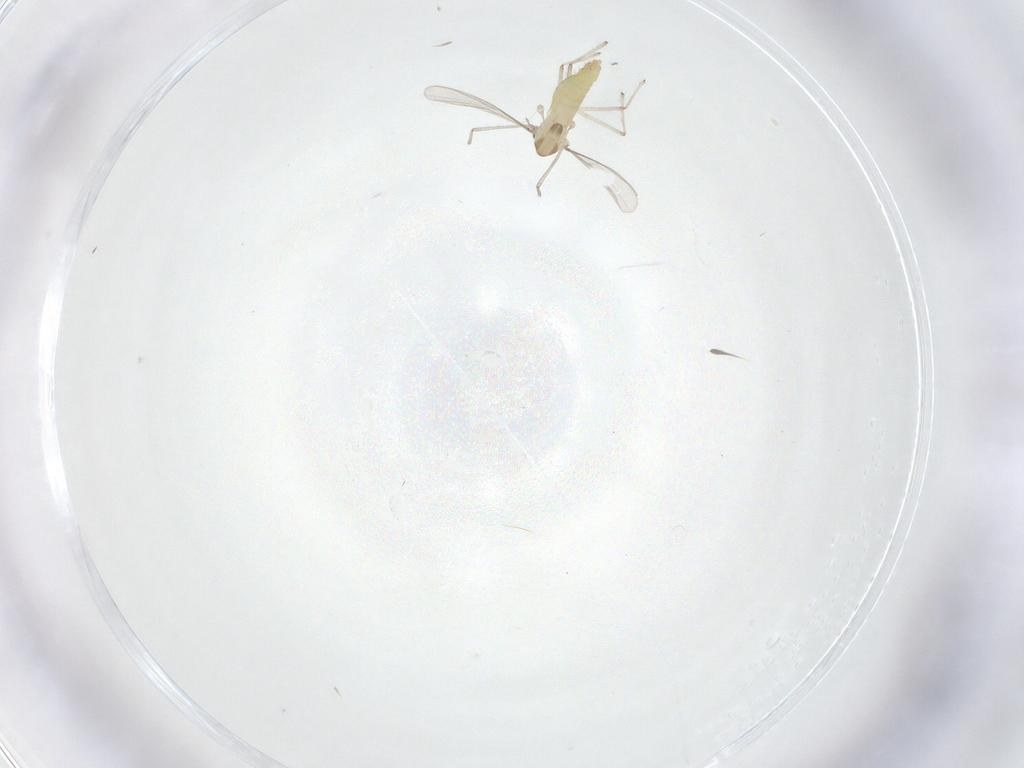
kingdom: Animalia
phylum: Arthropoda
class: Insecta
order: Diptera
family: Chironomidae
